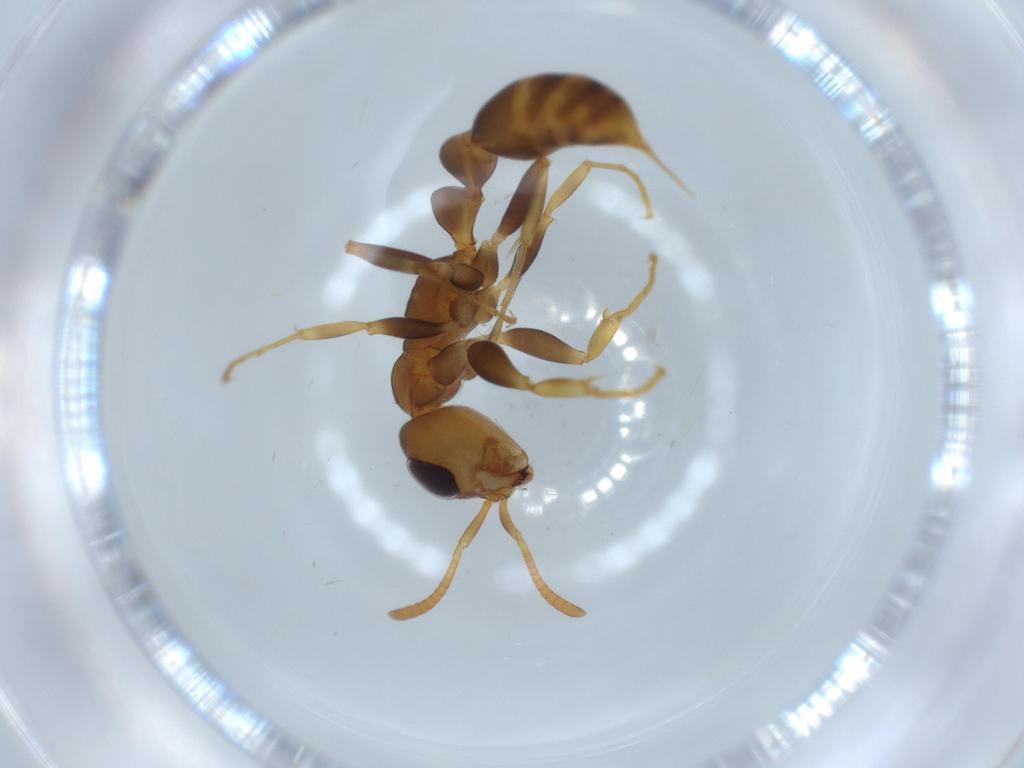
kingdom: Animalia
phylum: Arthropoda
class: Insecta
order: Hymenoptera
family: Formicidae
